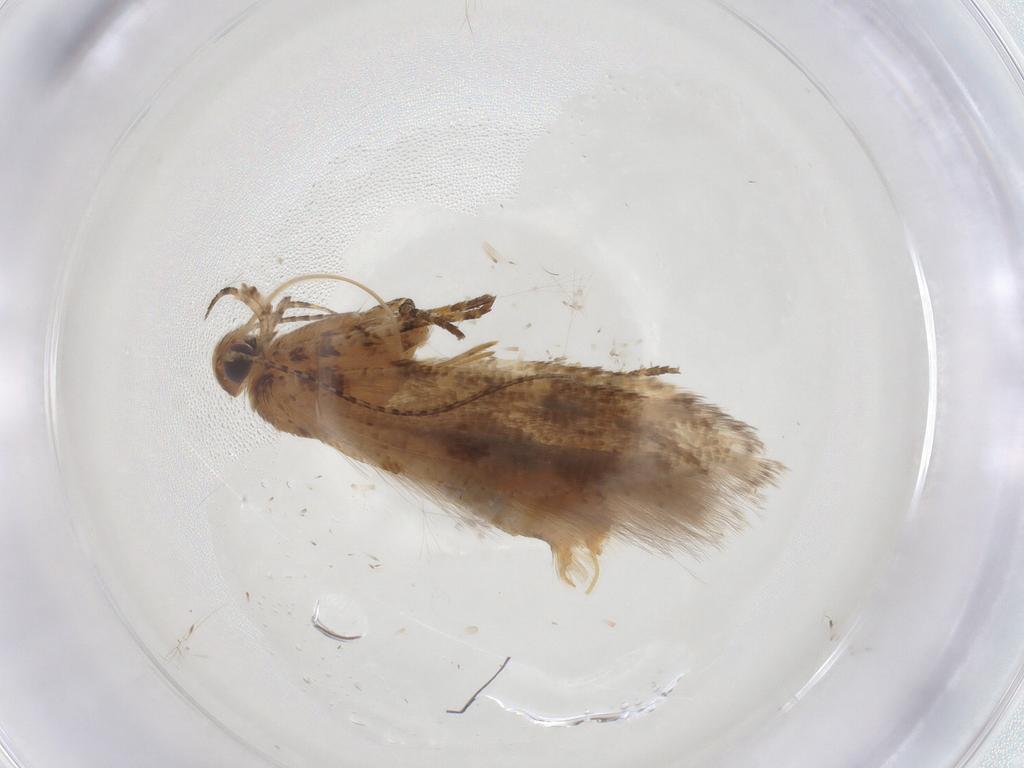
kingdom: Animalia
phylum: Arthropoda
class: Insecta
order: Lepidoptera
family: Gelechiidae
